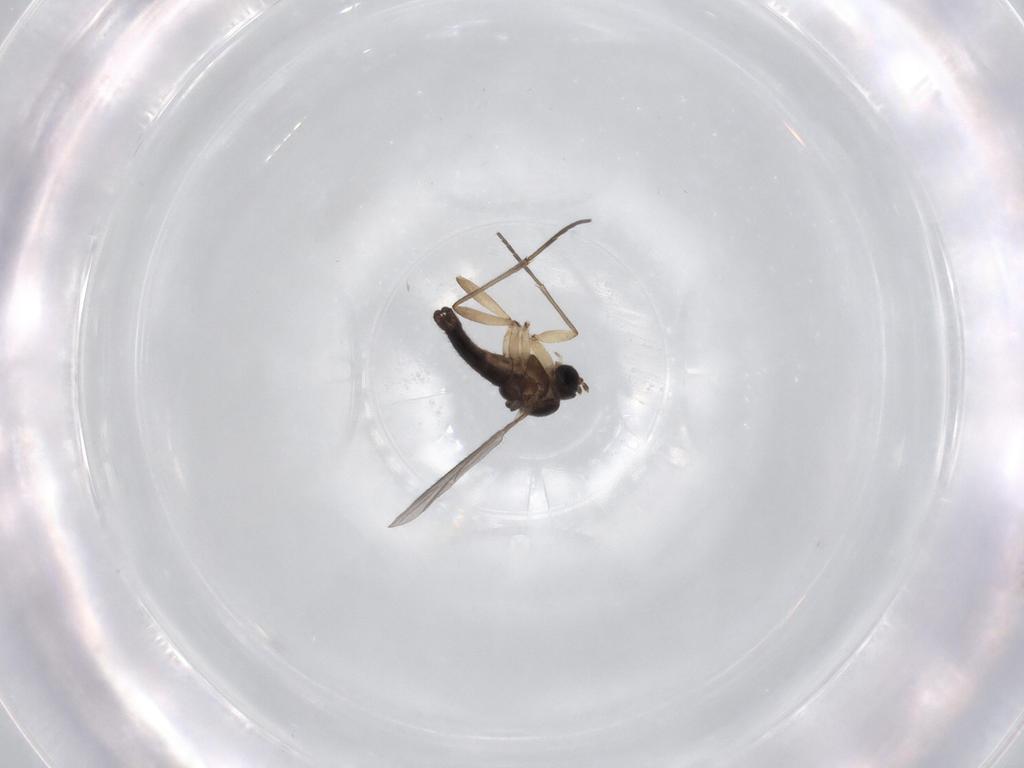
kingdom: Animalia
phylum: Arthropoda
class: Insecta
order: Diptera
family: Sciaridae
